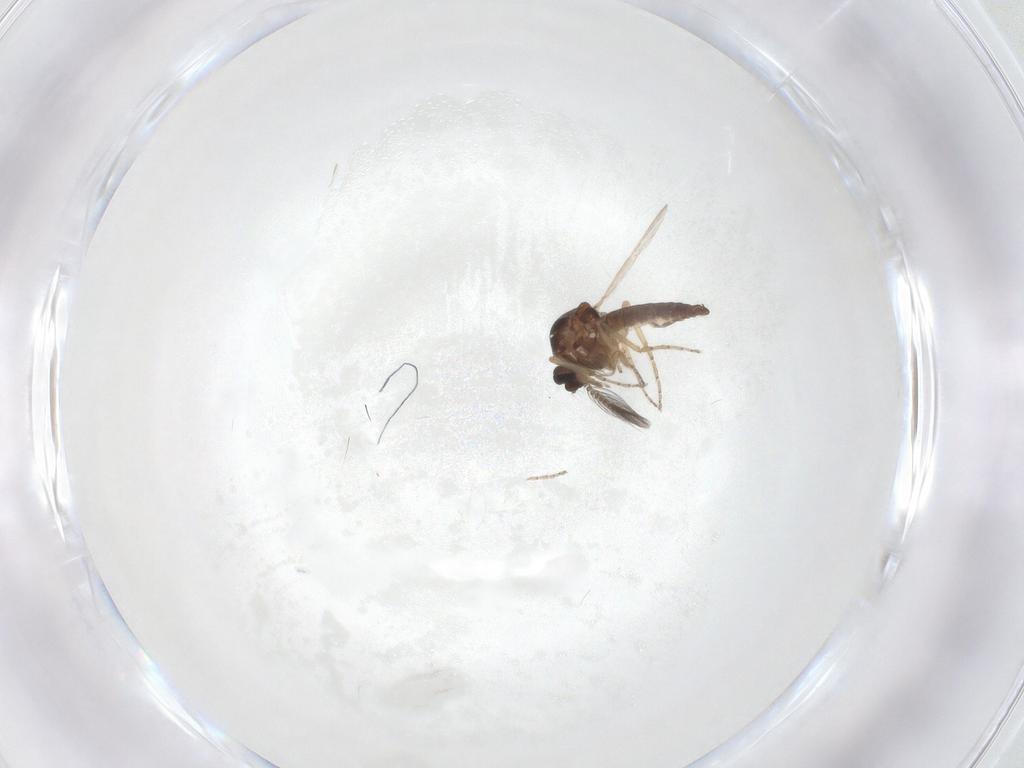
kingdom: Animalia
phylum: Arthropoda
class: Insecta
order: Diptera
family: Ceratopogonidae
